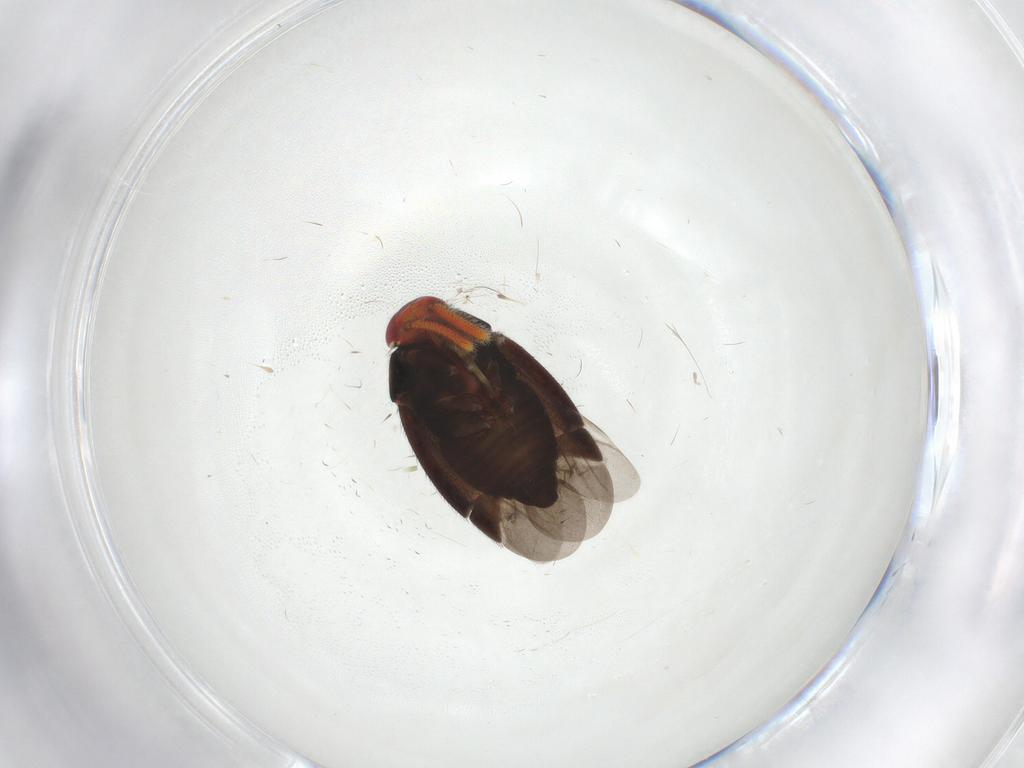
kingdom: Animalia
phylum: Arthropoda
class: Insecta
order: Hemiptera
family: Miridae
